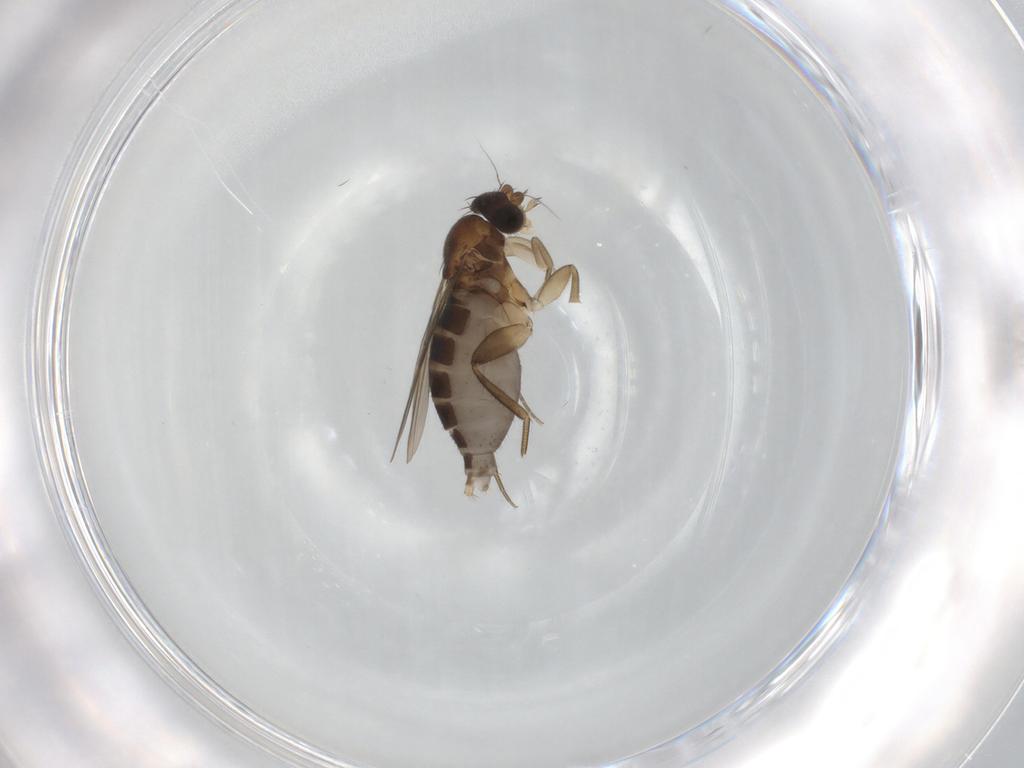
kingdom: Animalia
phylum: Arthropoda
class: Insecta
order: Diptera
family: Phoridae
